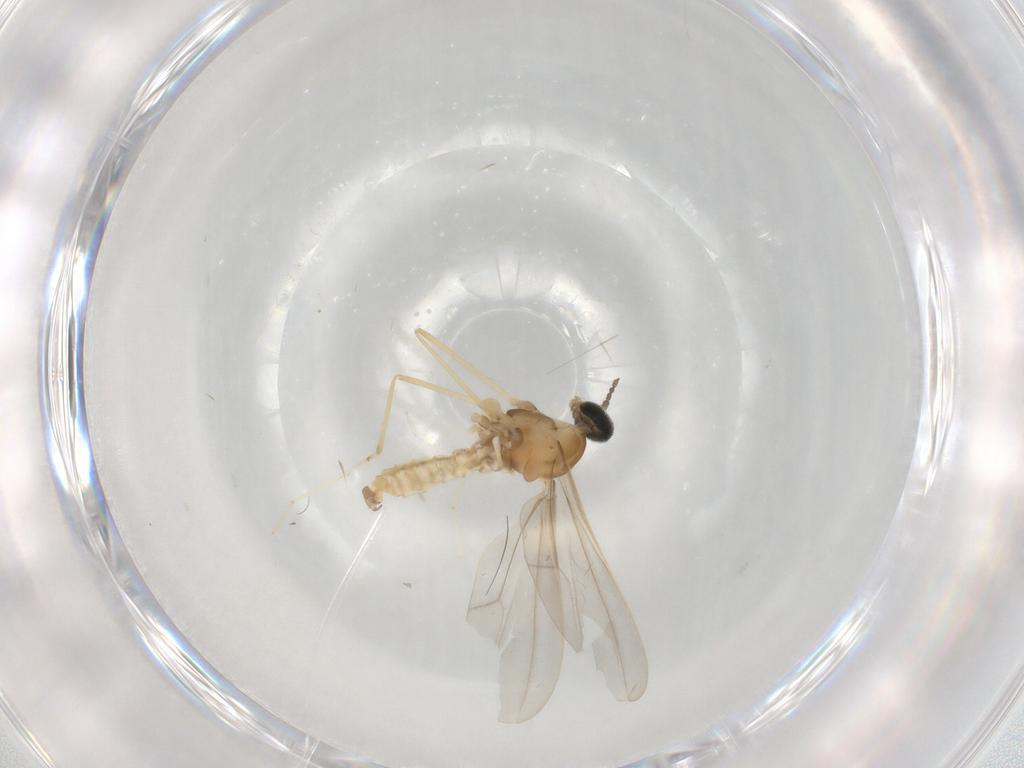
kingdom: Animalia
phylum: Arthropoda
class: Insecta
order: Diptera
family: Cecidomyiidae
